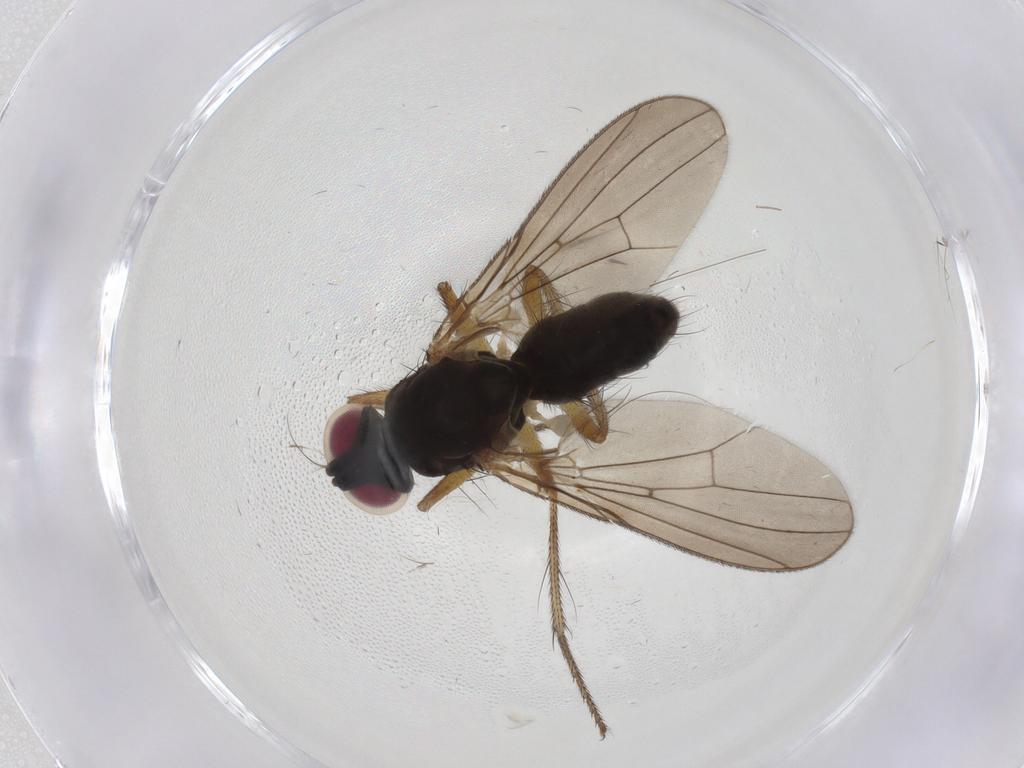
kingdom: Animalia
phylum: Arthropoda
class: Insecta
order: Diptera
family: Anthomyiidae
